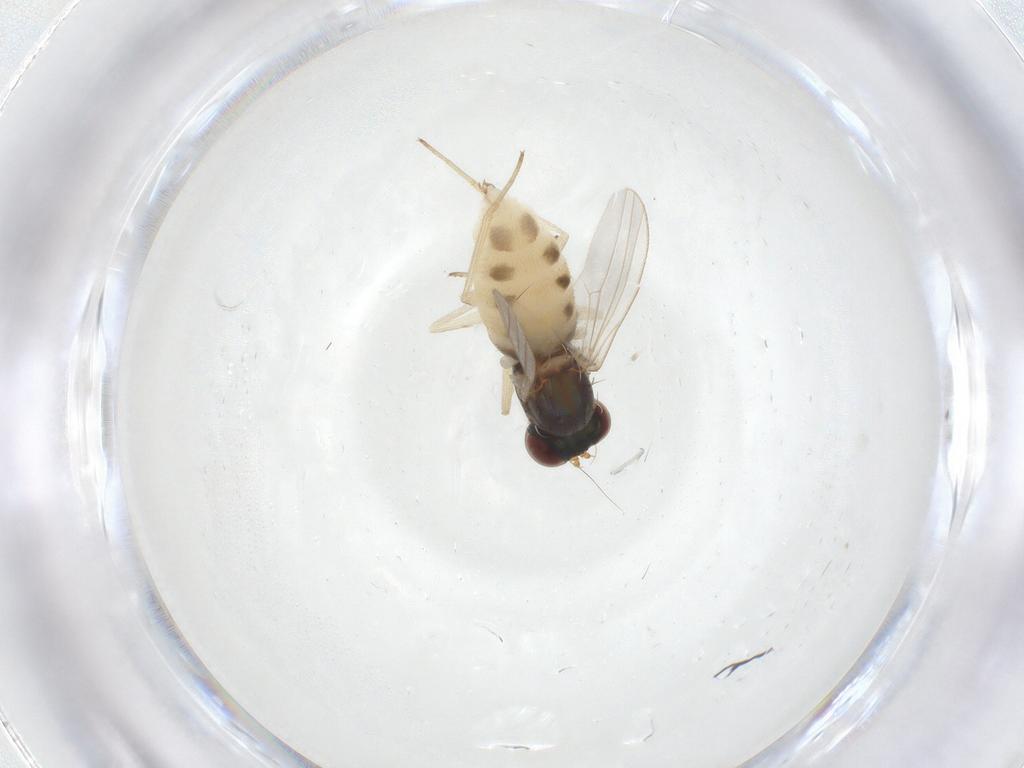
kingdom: Animalia
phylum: Arthropoda
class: Insecta
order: Diptera
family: Dolichopodidae
